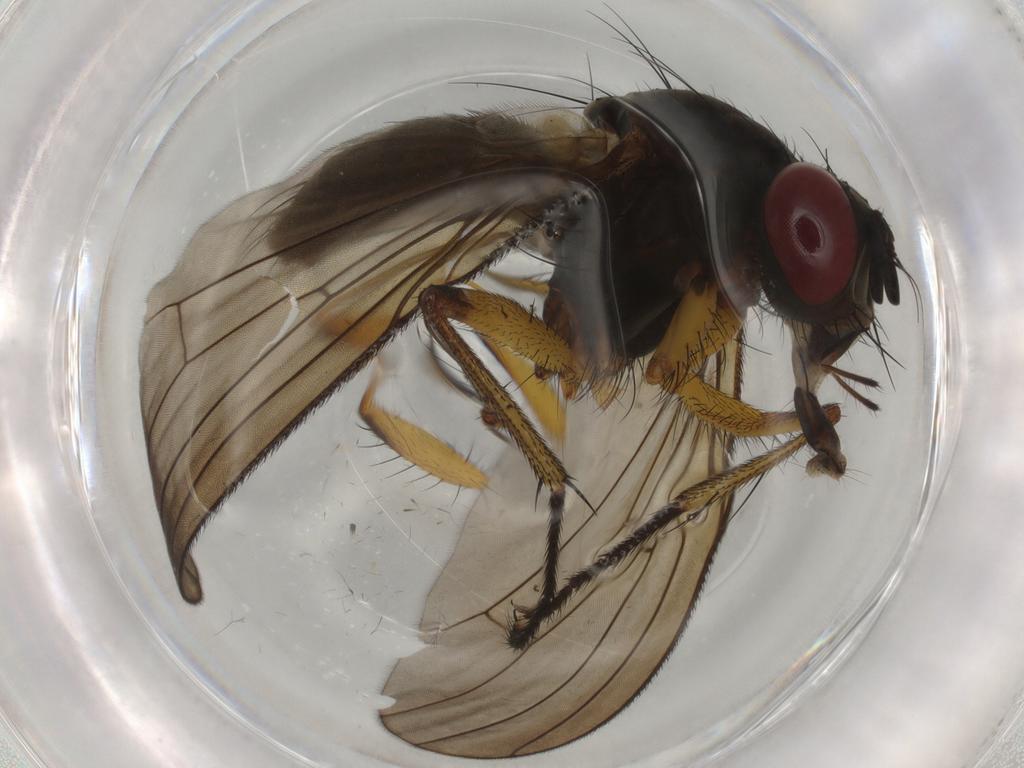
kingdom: Animalia
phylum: Arthropoda
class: Insecta
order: Diptera
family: Muscidae
